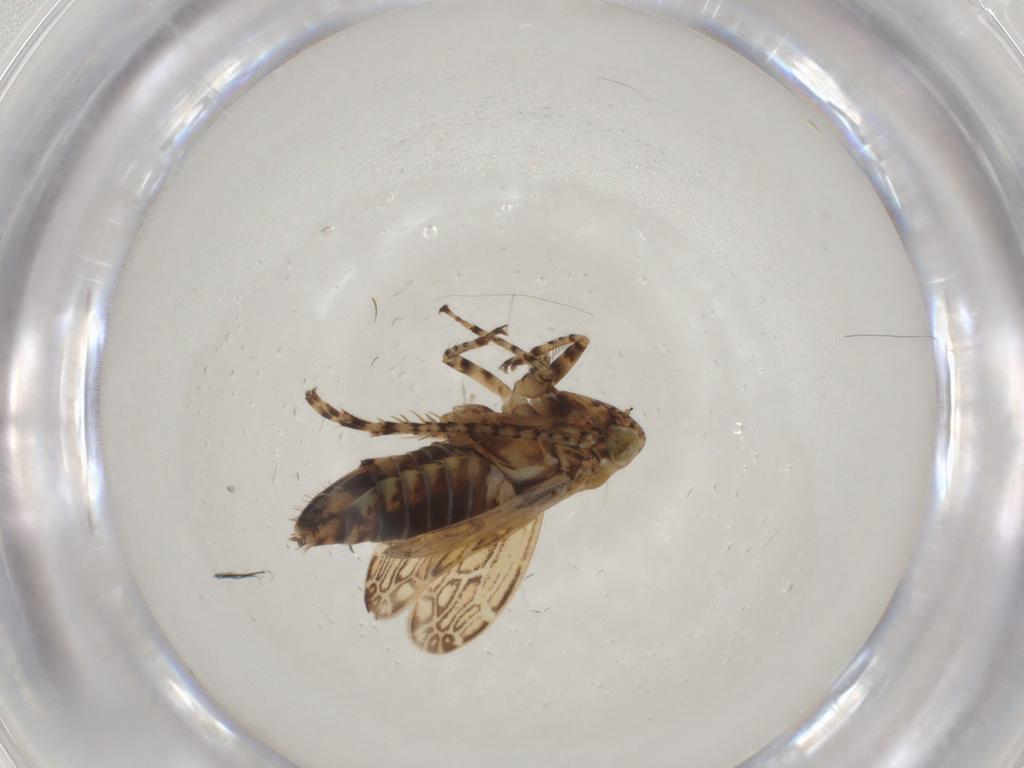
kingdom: Animalia
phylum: Arthropoda
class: Insecta
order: Hemiptera
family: Cicadellidae
